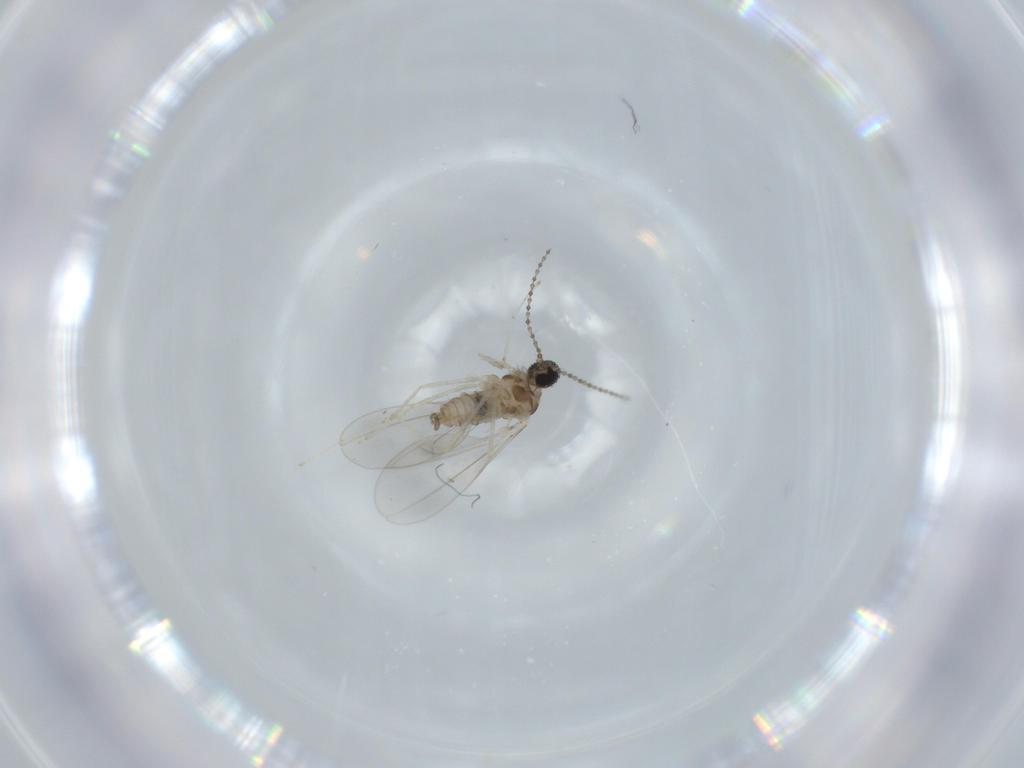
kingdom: Animalia
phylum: Arthropoda
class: Insecta
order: Diptera
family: Cecidomyiidae
